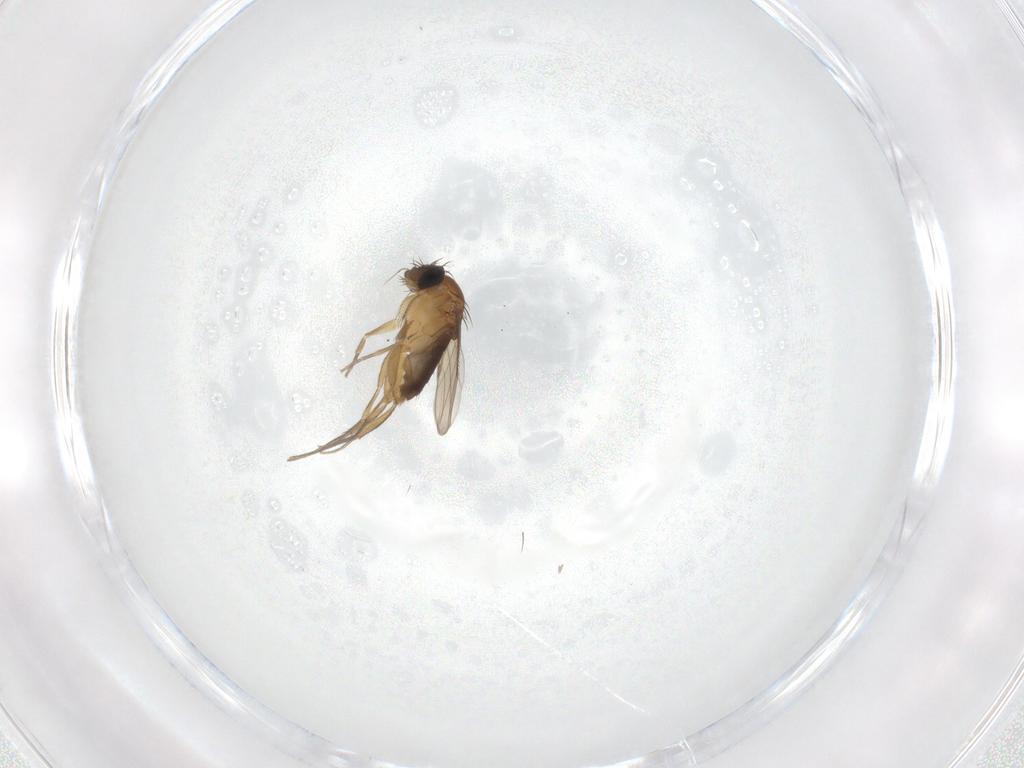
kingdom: Animalia
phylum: Arthropoda
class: Insecta
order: Diptera
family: Phoridae
